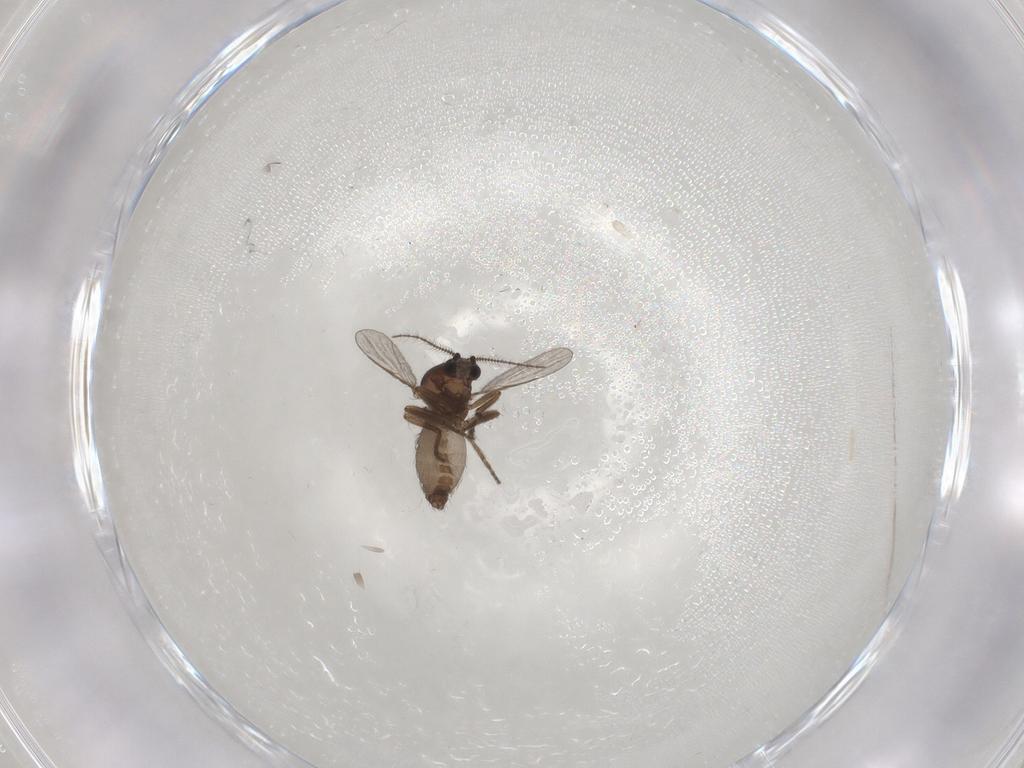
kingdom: Animalia
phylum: Arthropoda
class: Insecta
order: Diptera
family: Ceratopogonidae
